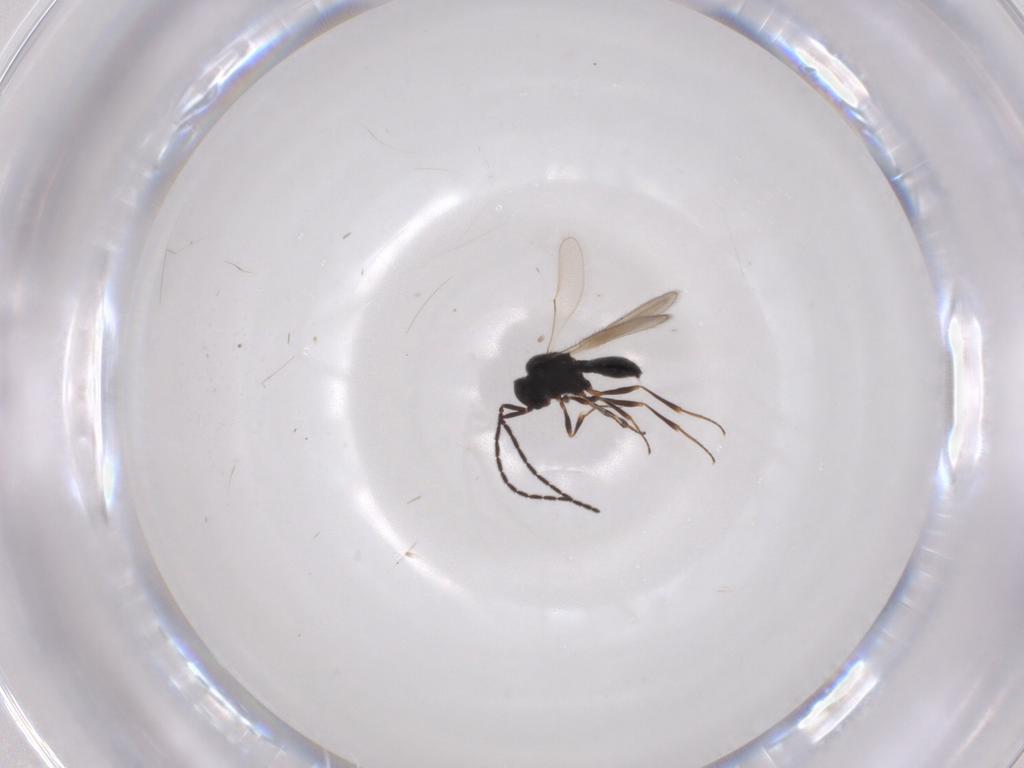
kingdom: Animalia
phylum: Arthropoda
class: Insecta
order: Hymenoptera
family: Scelionidae
